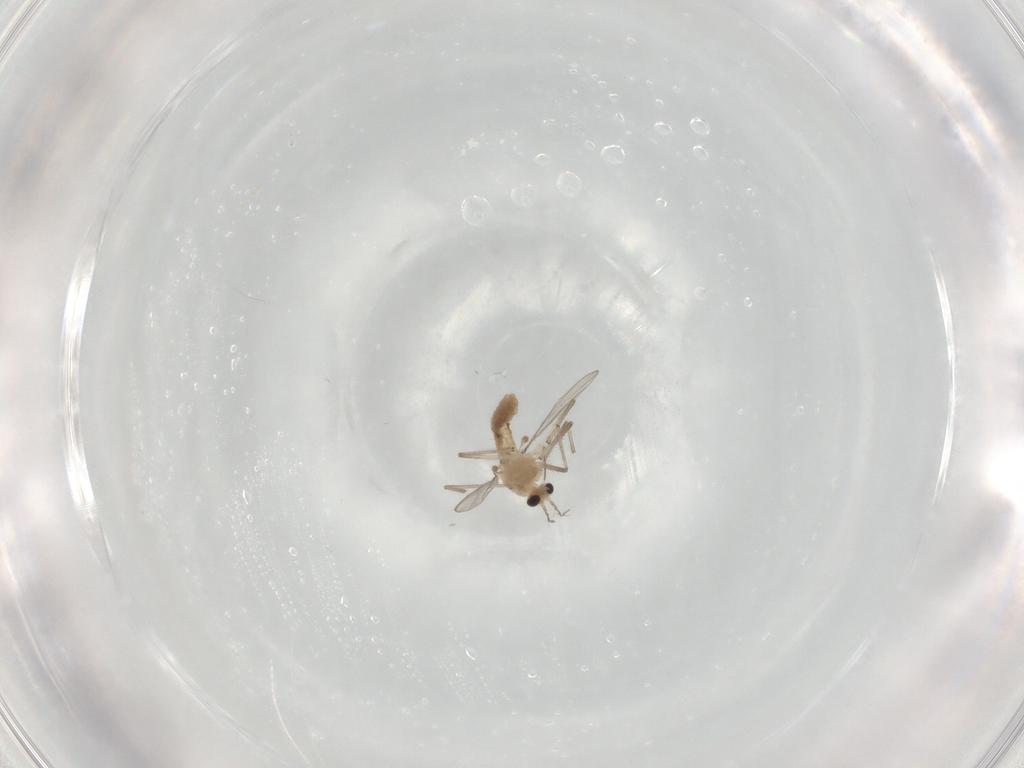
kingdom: Animalia
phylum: Arthropoda
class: Insecta
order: Diptera
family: Chironomidae
